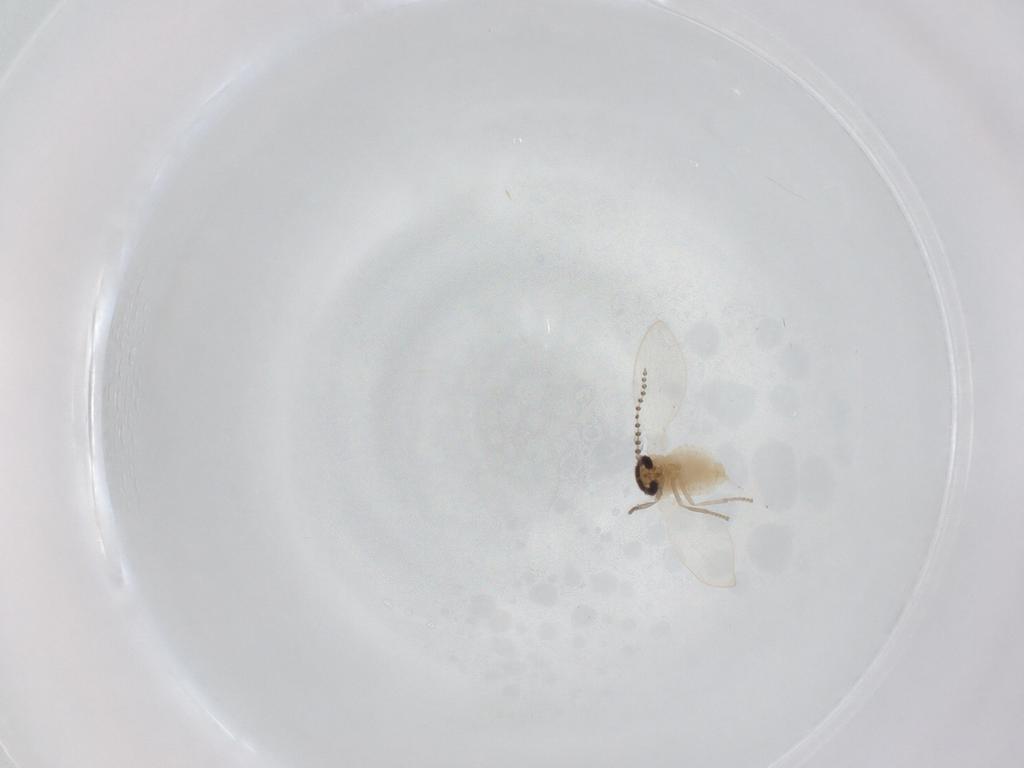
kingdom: Animalia
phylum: Arthropoda
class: Insecta
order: Diptera
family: Psychodidae
